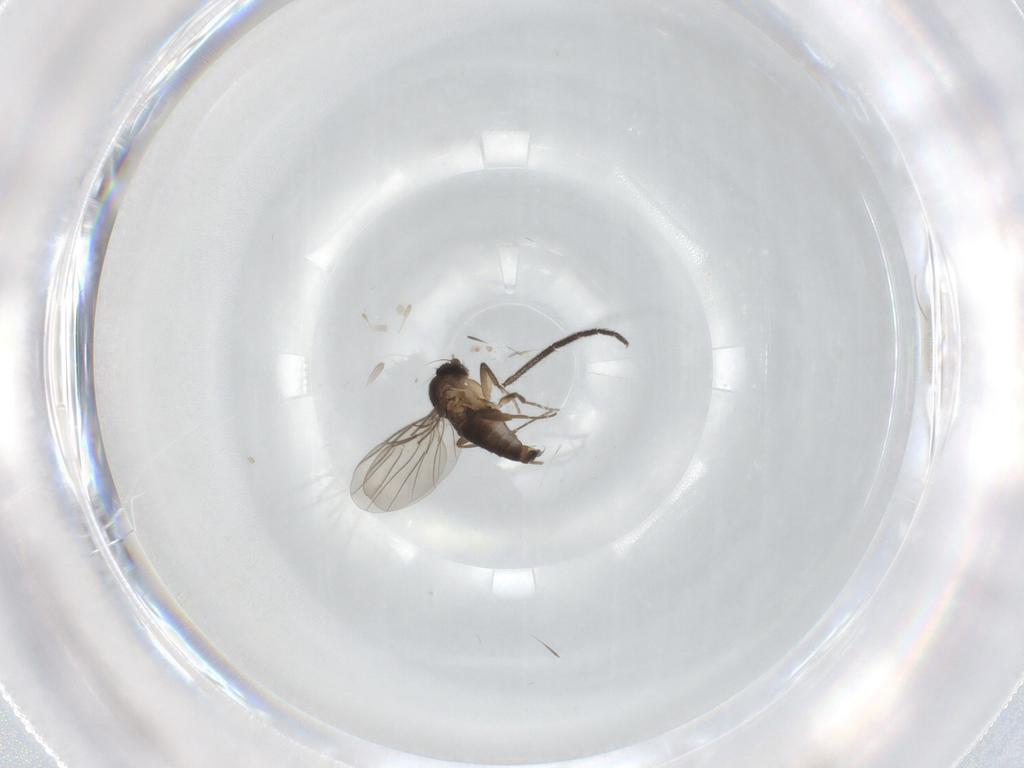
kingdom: Animalia
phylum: Arthropoda
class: Insecta
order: Diptera
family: Phoridae
